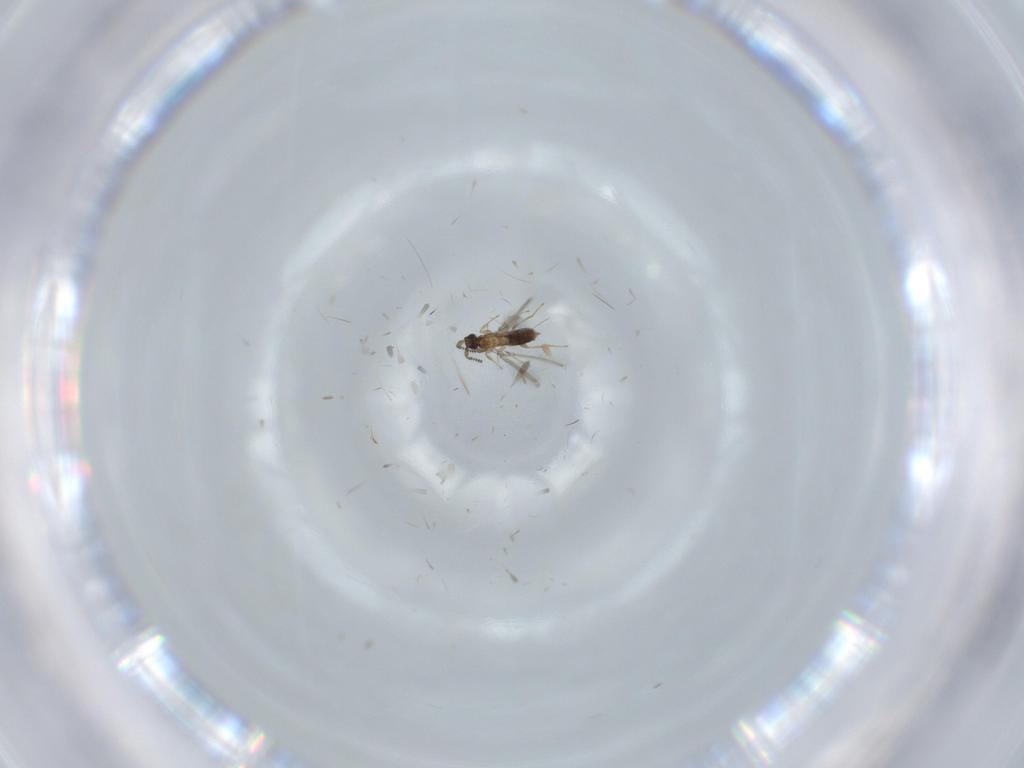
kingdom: Animalia
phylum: Arthropoda
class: Insecta
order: Hymenoptera
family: Mymaridae
